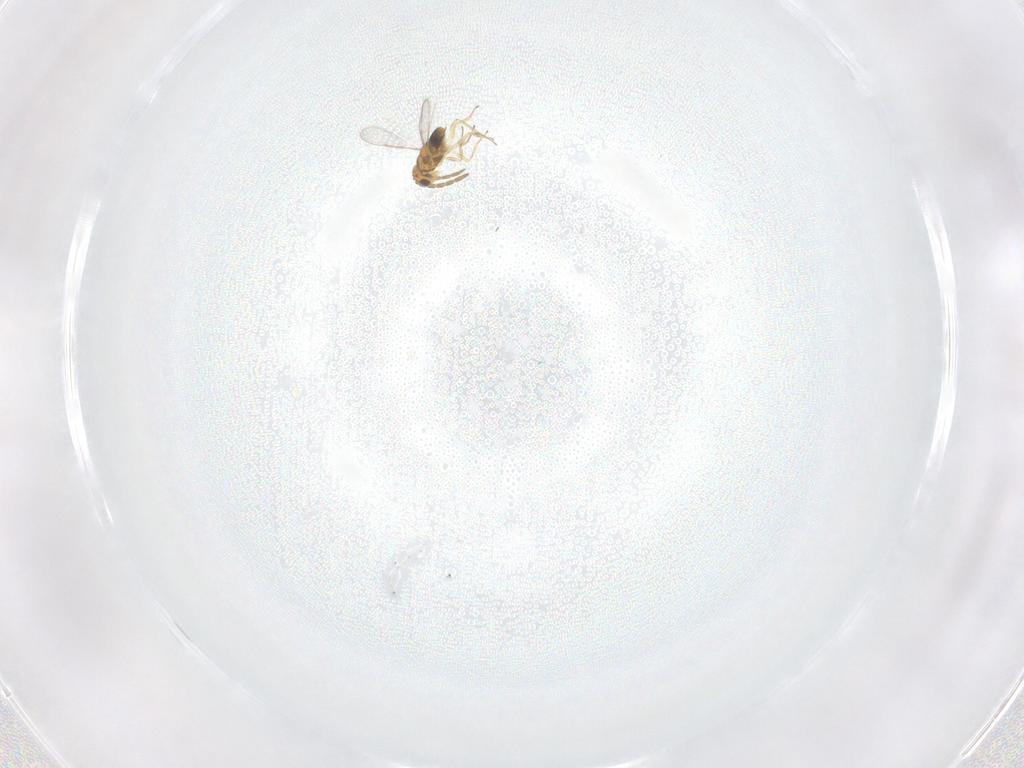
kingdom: Animalia
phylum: Arthropoda
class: Insecta
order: Hymenoptera
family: Aphelinidae
